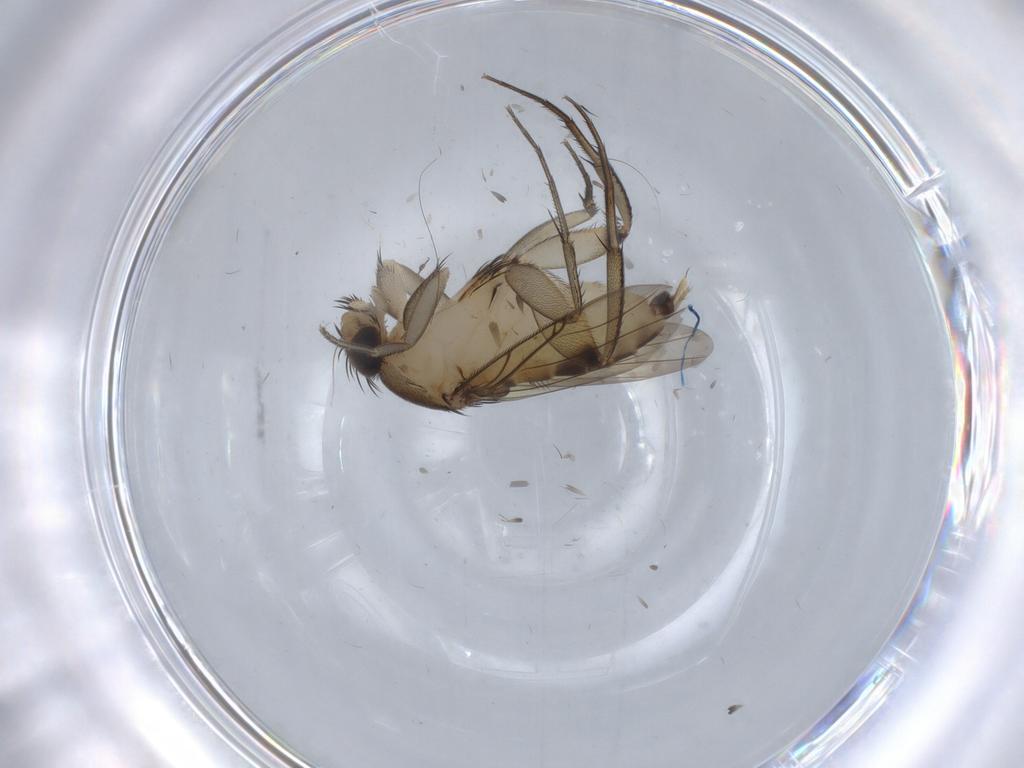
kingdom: Animalia
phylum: Arthropoda
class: Insecta
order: Diptera
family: Phoridae
